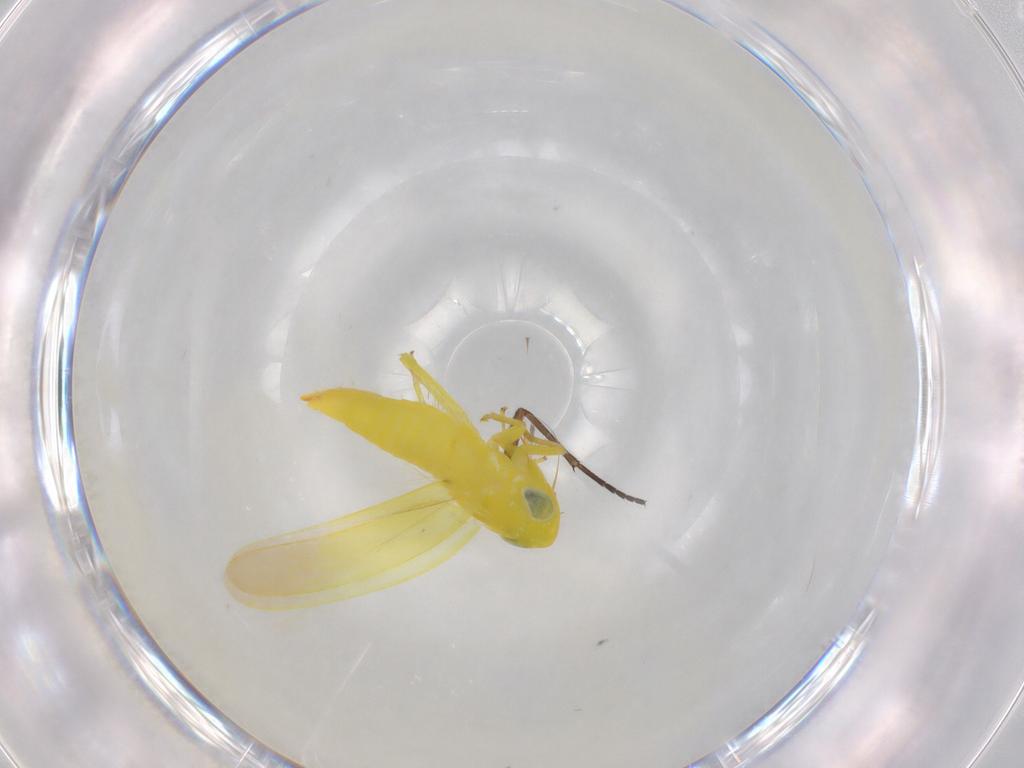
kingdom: Animalia
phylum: Arthropoda
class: Insecta
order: Hemiptera
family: Cicadellidae
